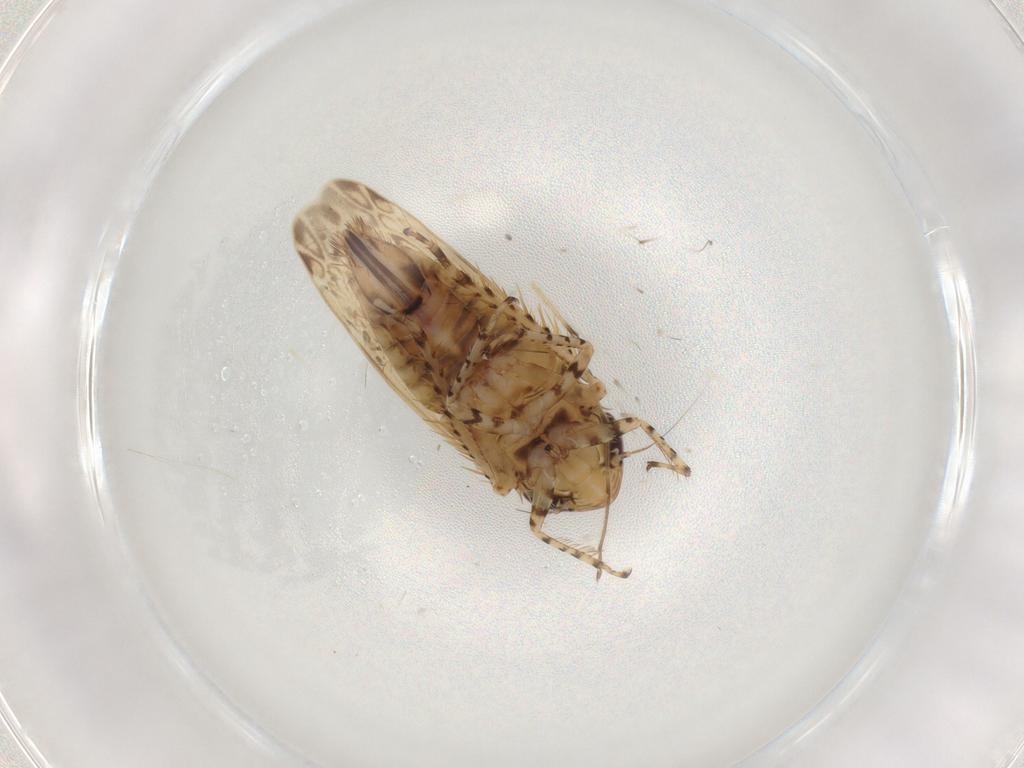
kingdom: Animalia
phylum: Arthropoda
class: Insecta
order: Hemiptera
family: Cicadellidae
